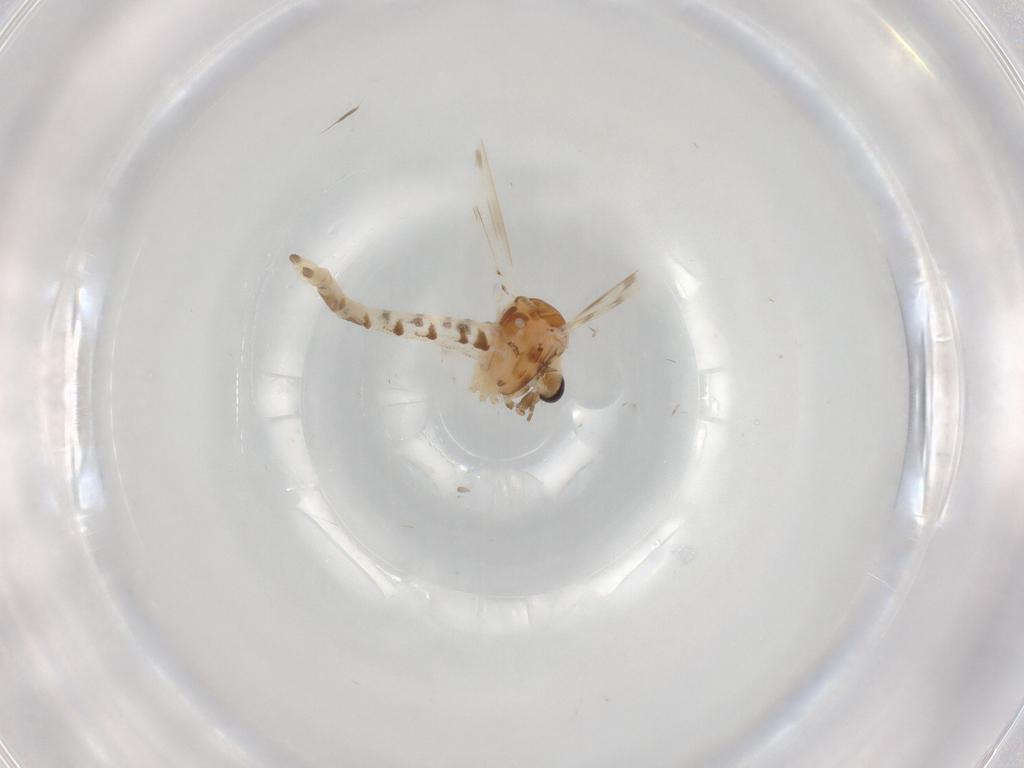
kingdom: Animalia
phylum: Arthropoda
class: Insecta
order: Diptera
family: Corethrellidae
